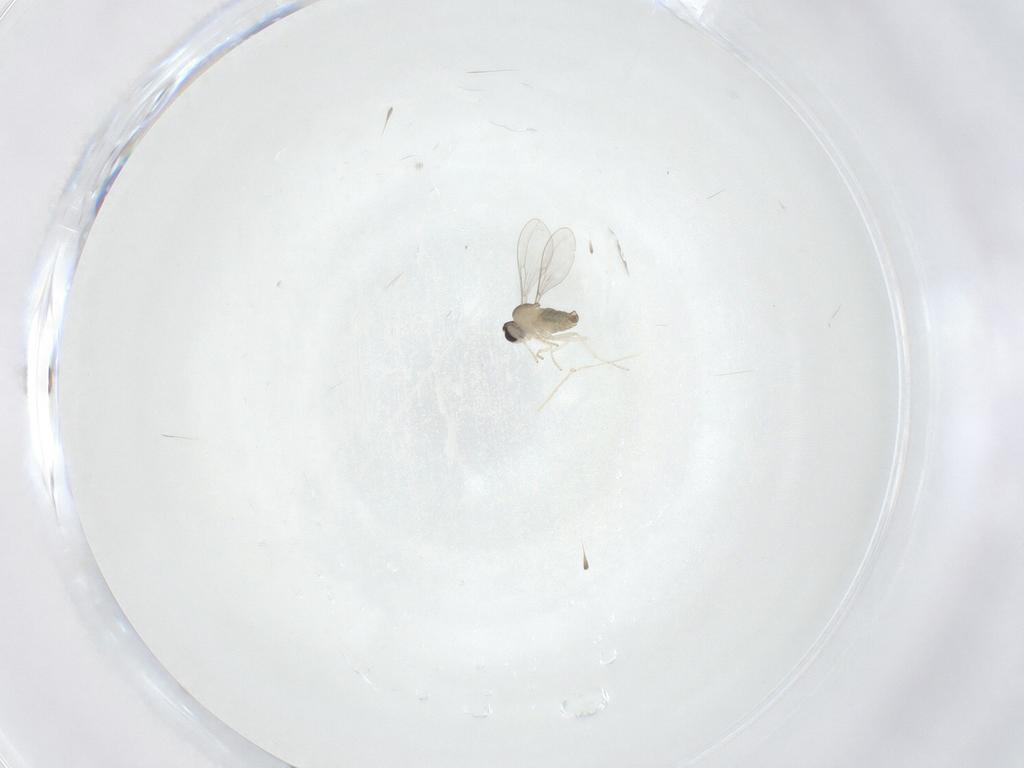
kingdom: Animalia
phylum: Arthropoda
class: Insecta
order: Diptera
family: Cecidomyiidae
